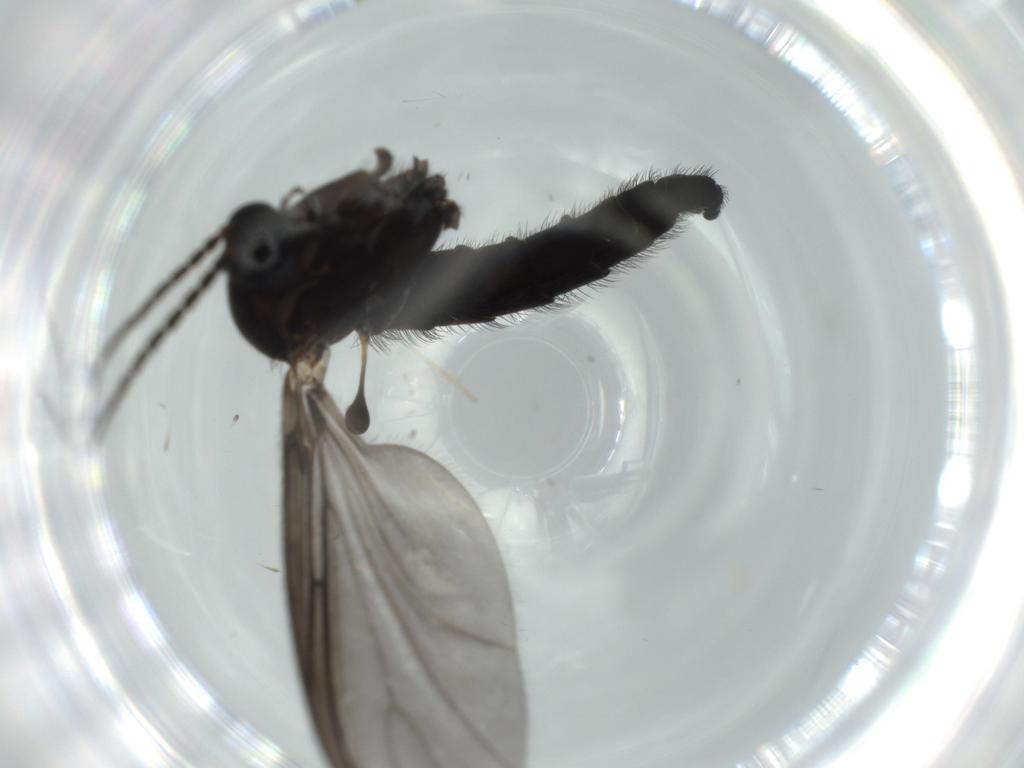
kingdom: Animalia
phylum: Arthropoda
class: Insecta
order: Diptera
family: Sciaridae
